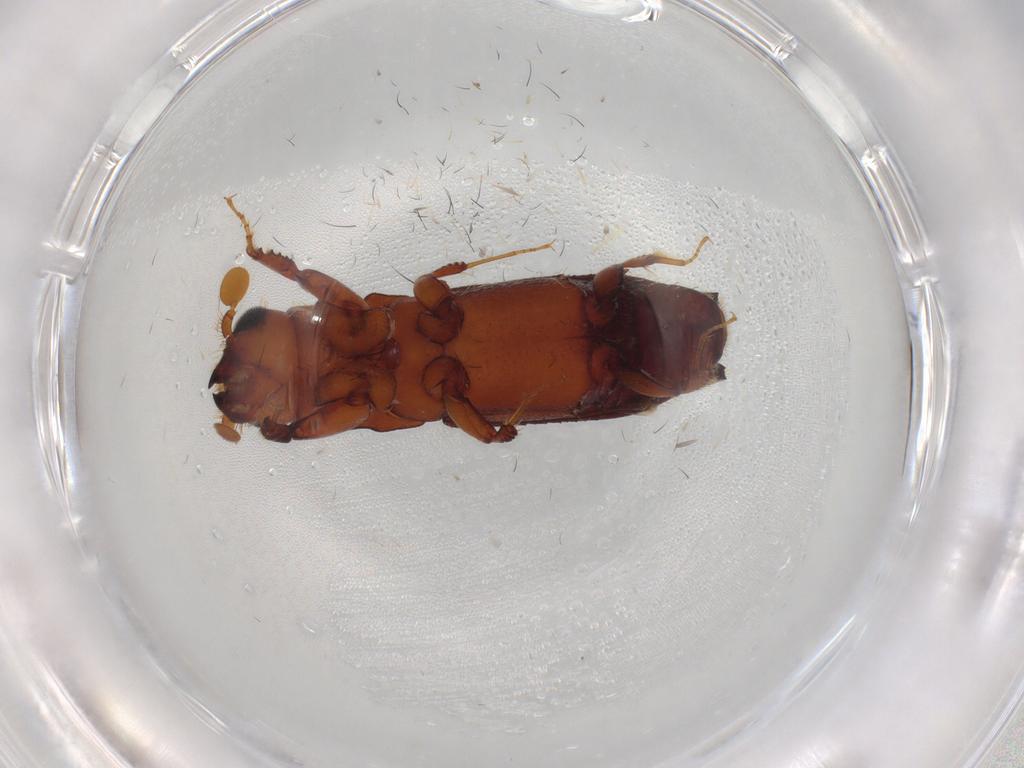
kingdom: Animalia
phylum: Arthropoda
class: Insecta
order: Coleoptera
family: Curculionidae
